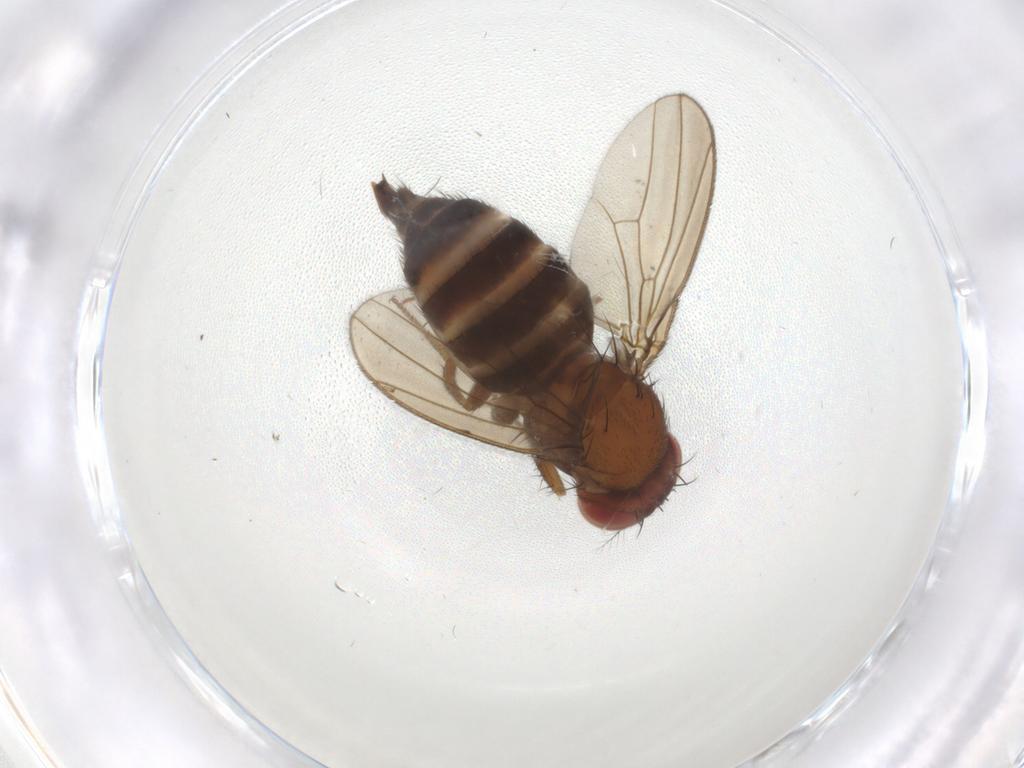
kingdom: Animalia
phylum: Arthropoda
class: Insecta
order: Diptera
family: Drosophilidae
